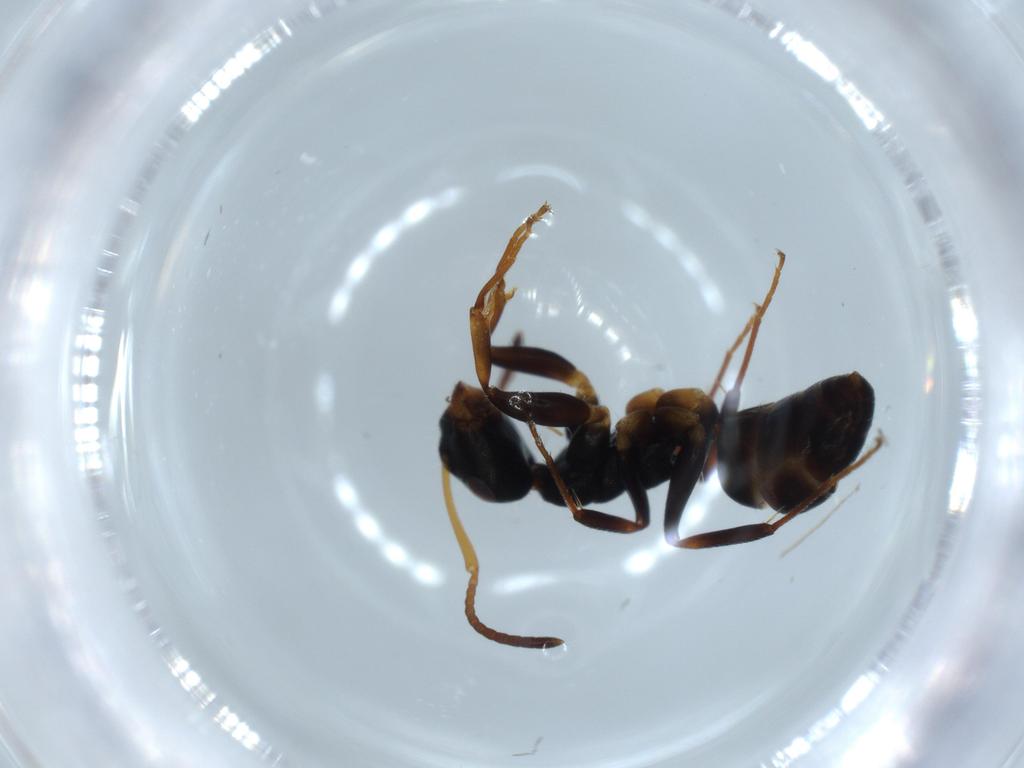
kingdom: Animalia
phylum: Arthropoda
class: Insecta
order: Hymenoptera
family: Formicidae
